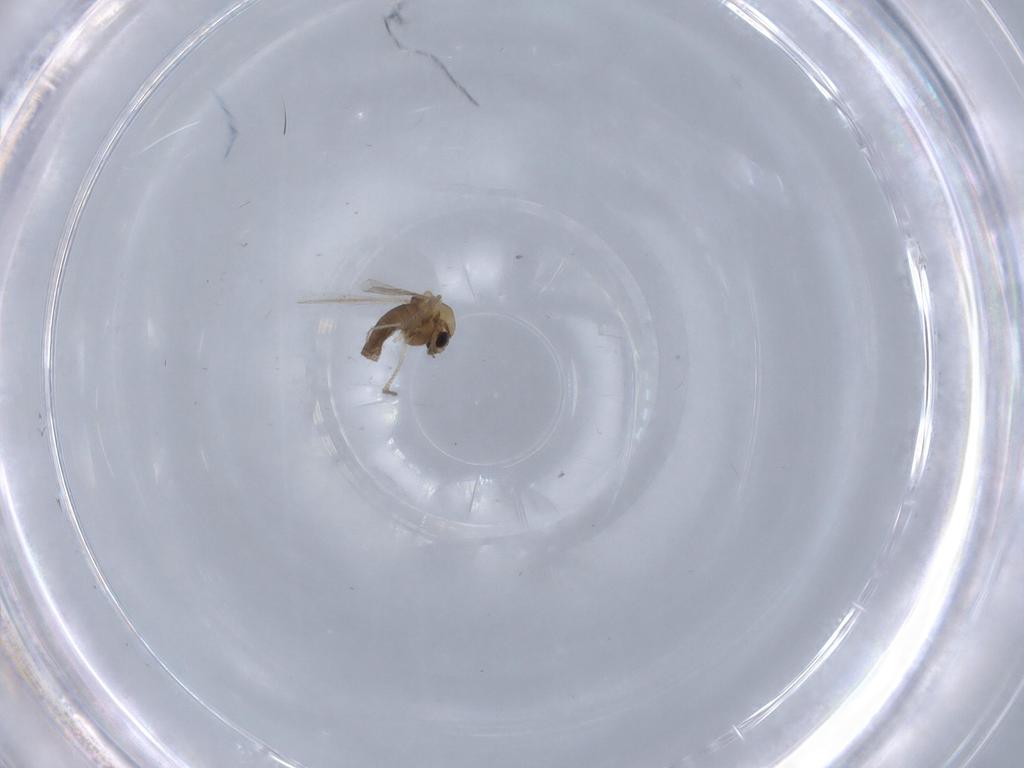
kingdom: Animalia
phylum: Arthropoda
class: Insecta
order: Diptera
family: Chironomidae
